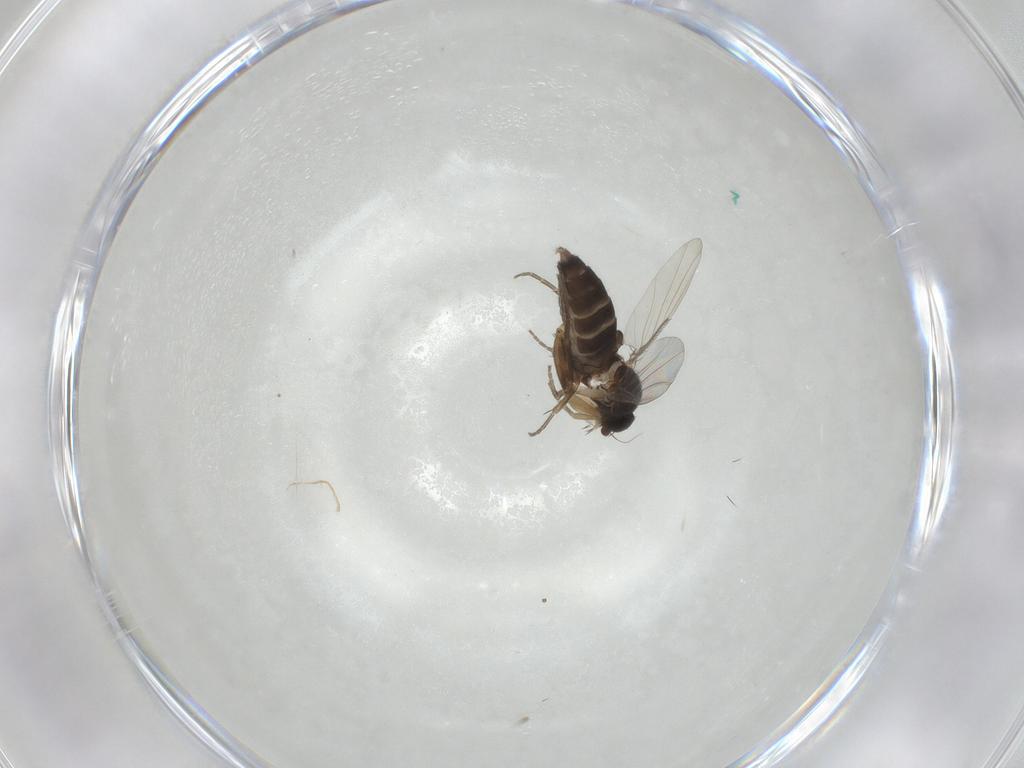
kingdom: Animalia
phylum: Arthropoda
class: Insecta
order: Diptera
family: Phoridae
